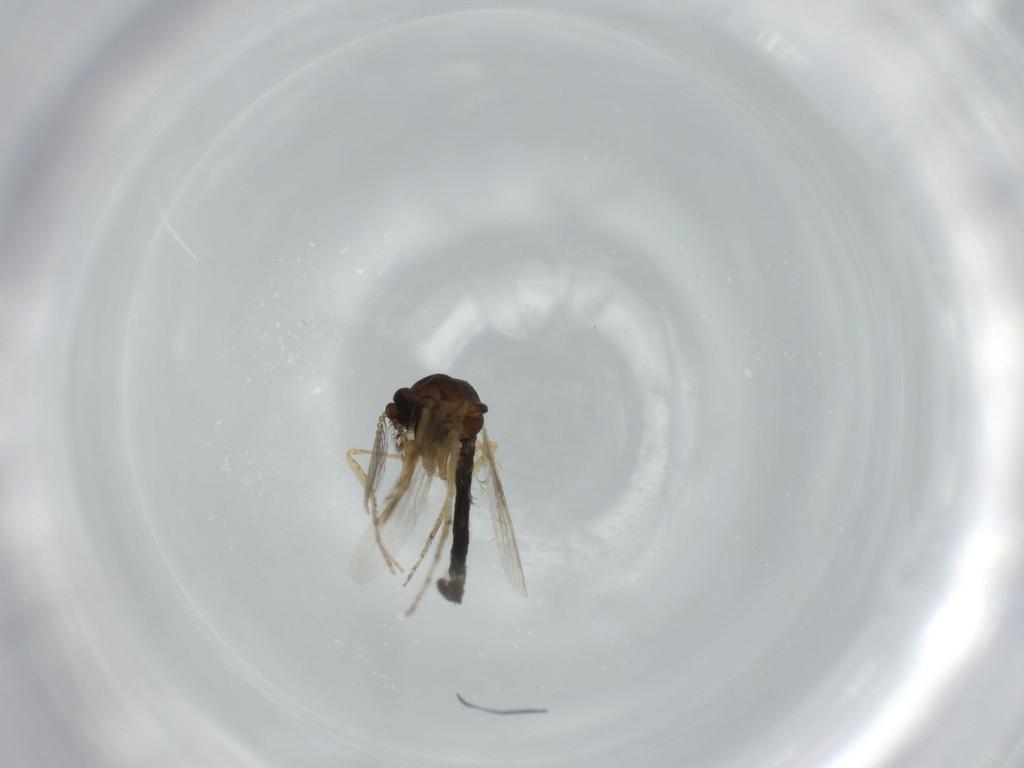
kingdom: Animalia
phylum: Arthropoda
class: Insecta
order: Diptera
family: Ceratopogonidae
